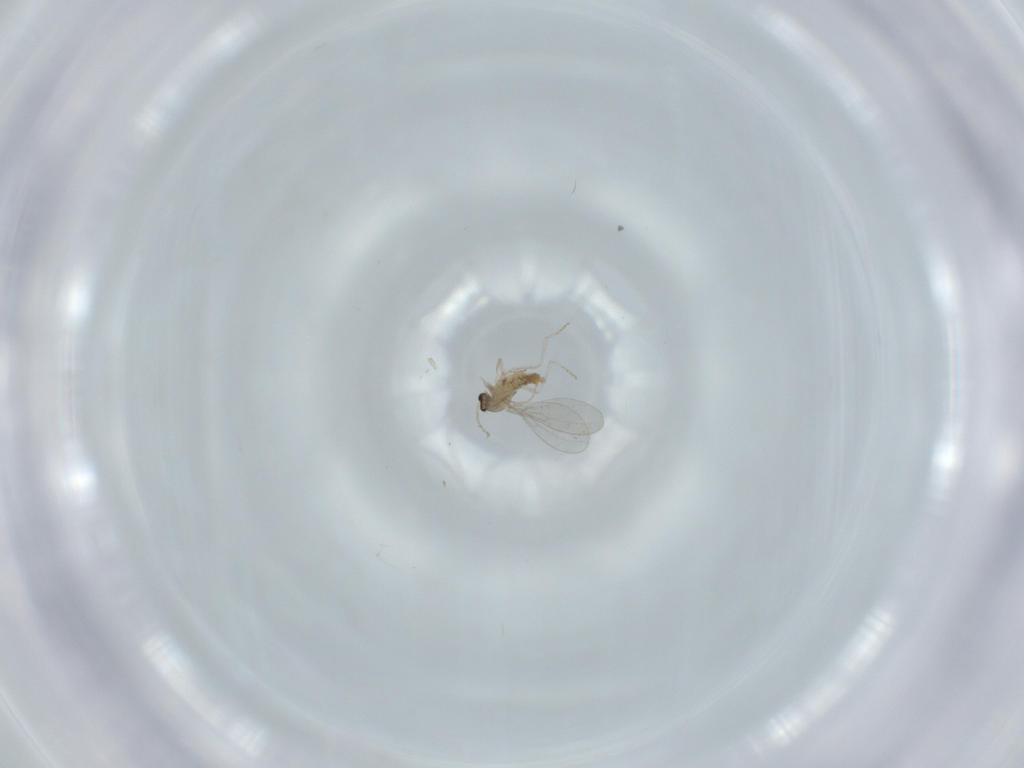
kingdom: Animalia
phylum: Arthropoda
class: Insecta
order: Diptera
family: Cecidomyiidae
